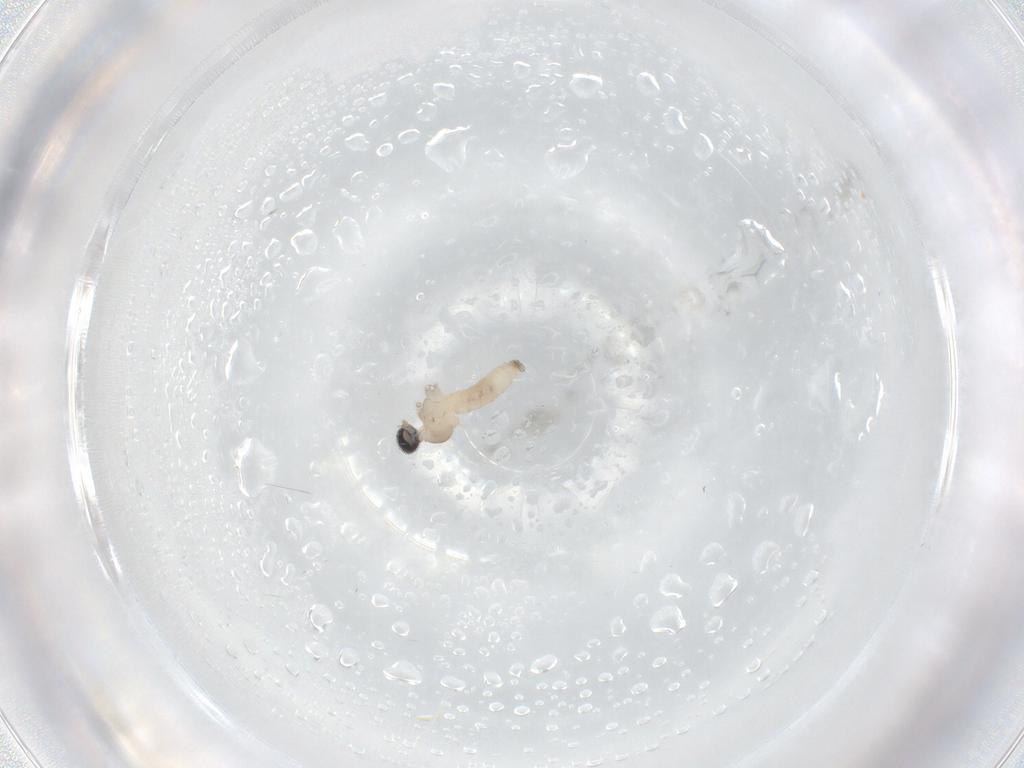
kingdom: Animalia
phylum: Arthropoda
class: Insecta
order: Diptera
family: Cecidomyiidae
